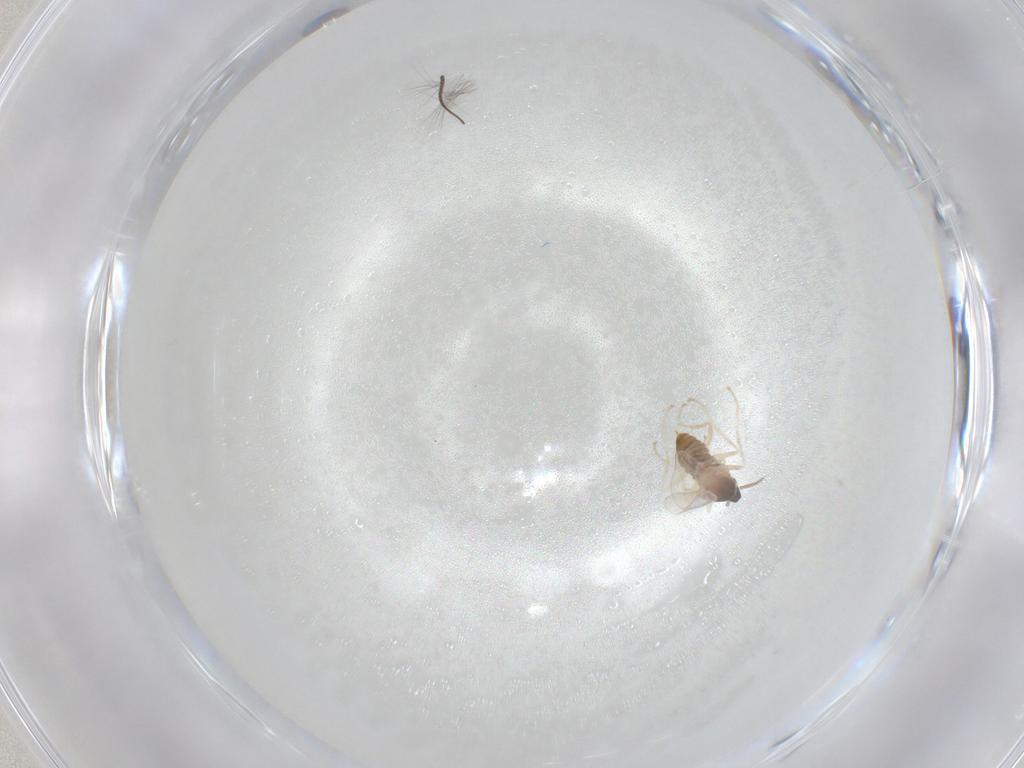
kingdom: Animalia
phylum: Arthropoda
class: Insecta
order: Diptera
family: Cecidomyiidae
